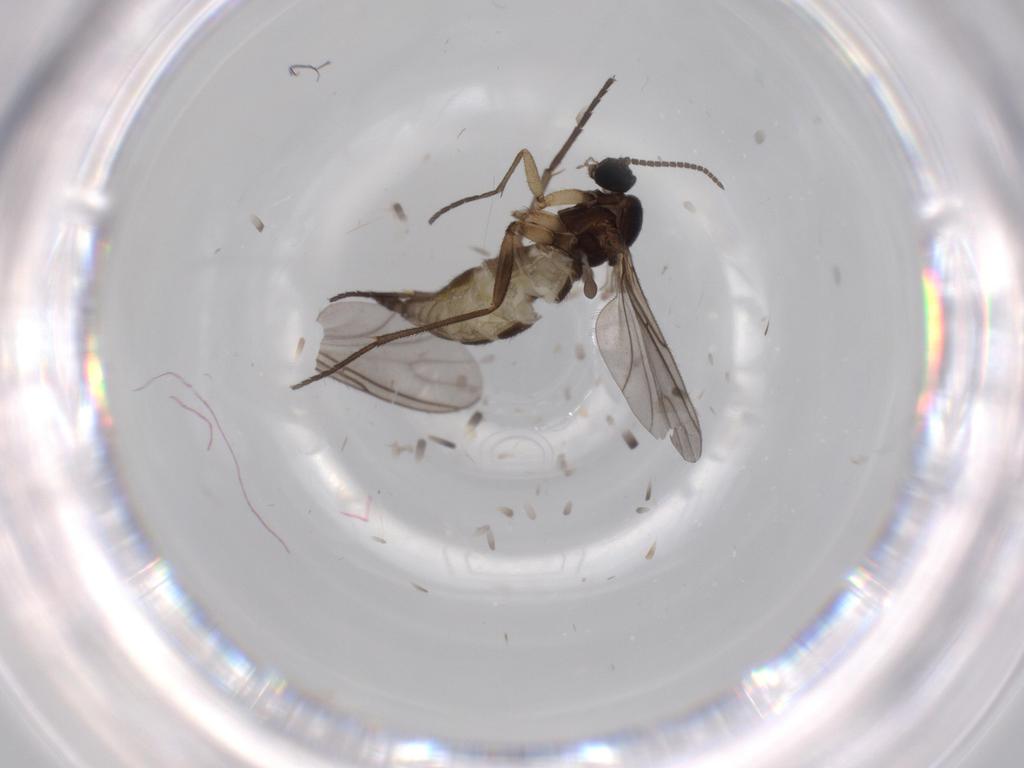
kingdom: Animalia
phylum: Arthropoda
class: Insecta
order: Diptera
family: Sciaridae
